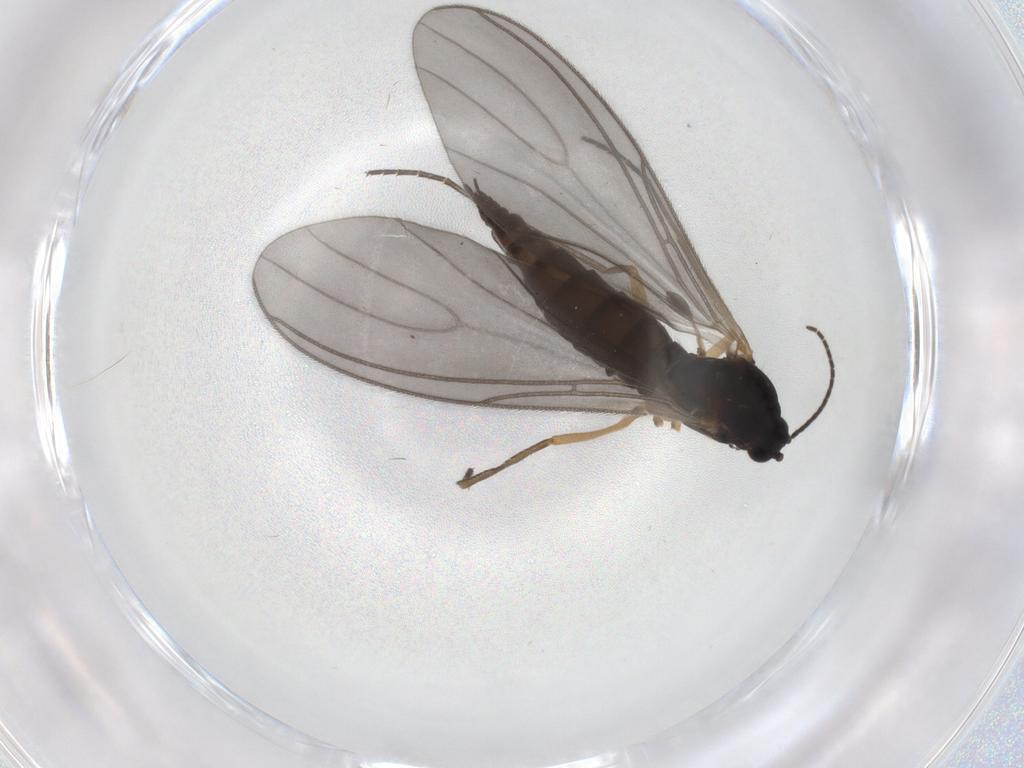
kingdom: Animalia
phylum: Arthropoda
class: Insecta
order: Diptera
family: Sciaridae
